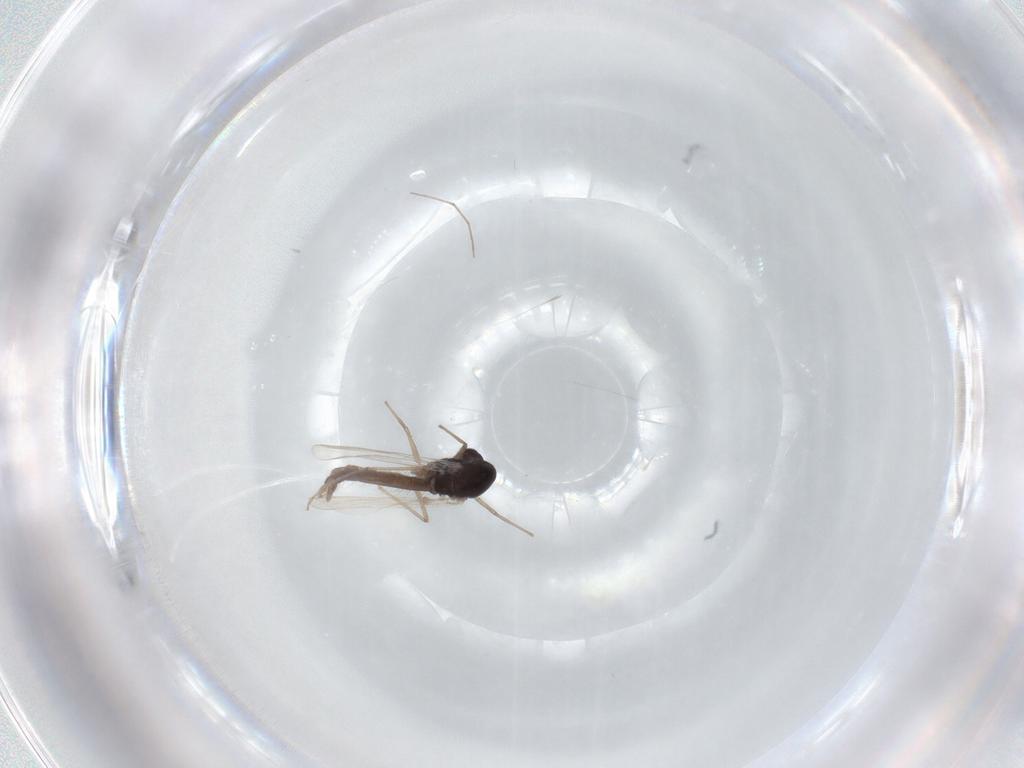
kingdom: Animalia
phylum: Arthropoda
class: Insecta
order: Diptera
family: Chironomidae
